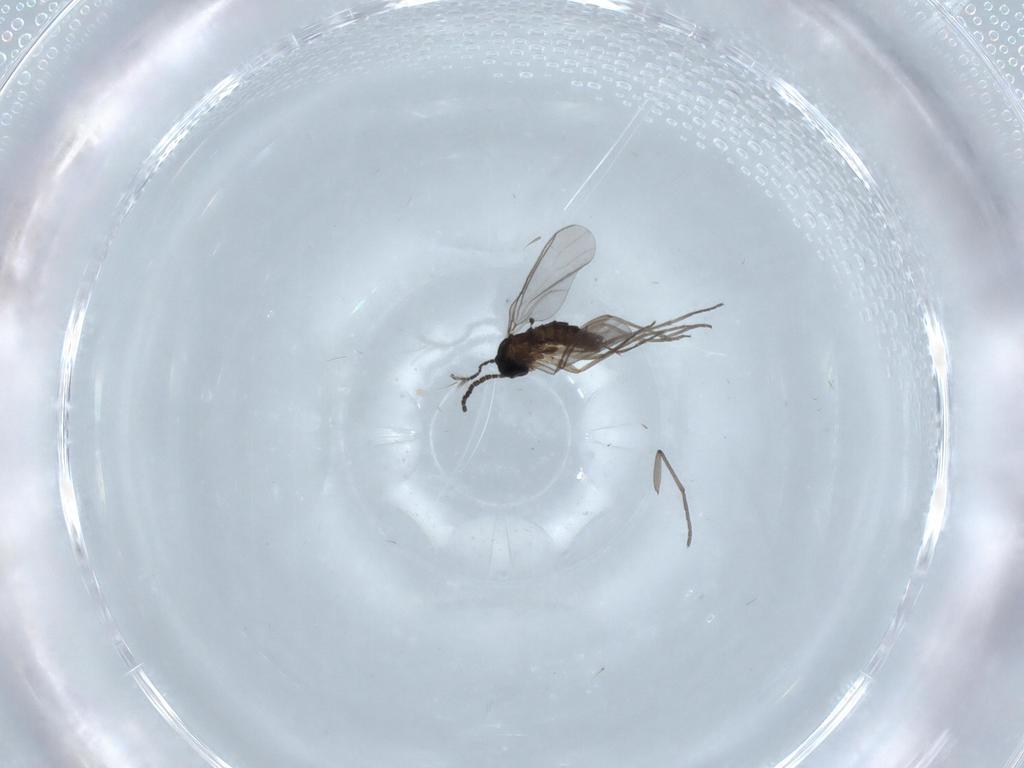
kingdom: Animalia
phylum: Arthropoda
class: Insecta
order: Diptera
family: Sciaridae
